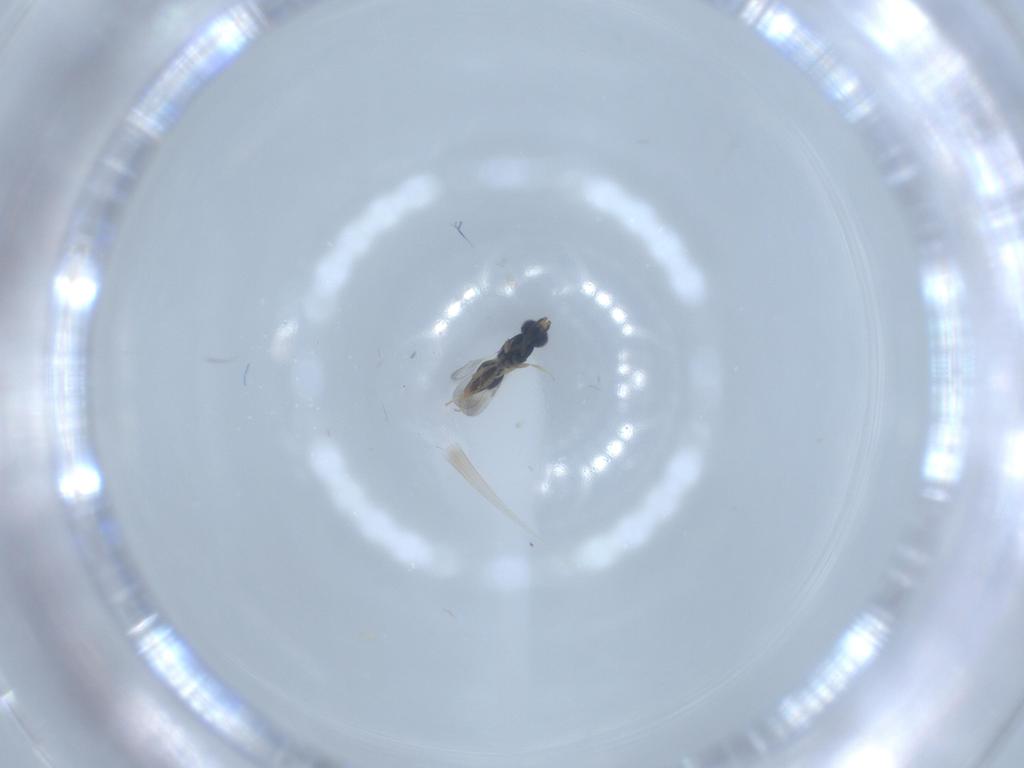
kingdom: Animalia
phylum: Arthropoda
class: Insecta
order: Hymenoptera
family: Ceraphronidae
